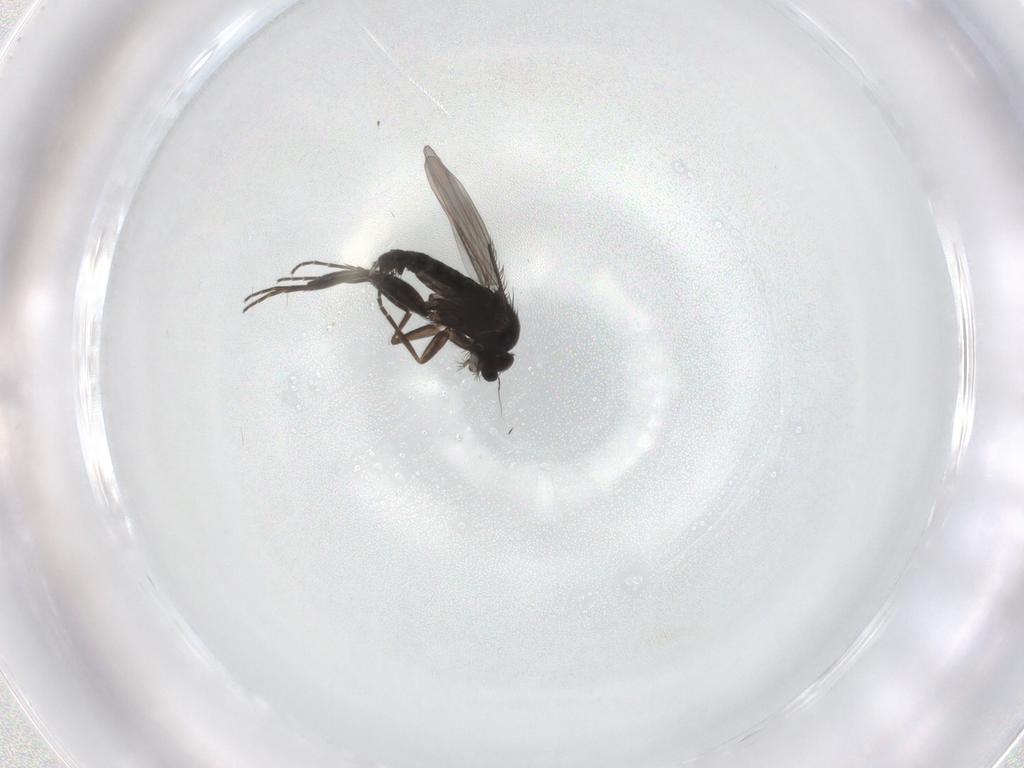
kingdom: Animalia
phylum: Arthropoda
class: Insecta
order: Diptera
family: Phoridae
